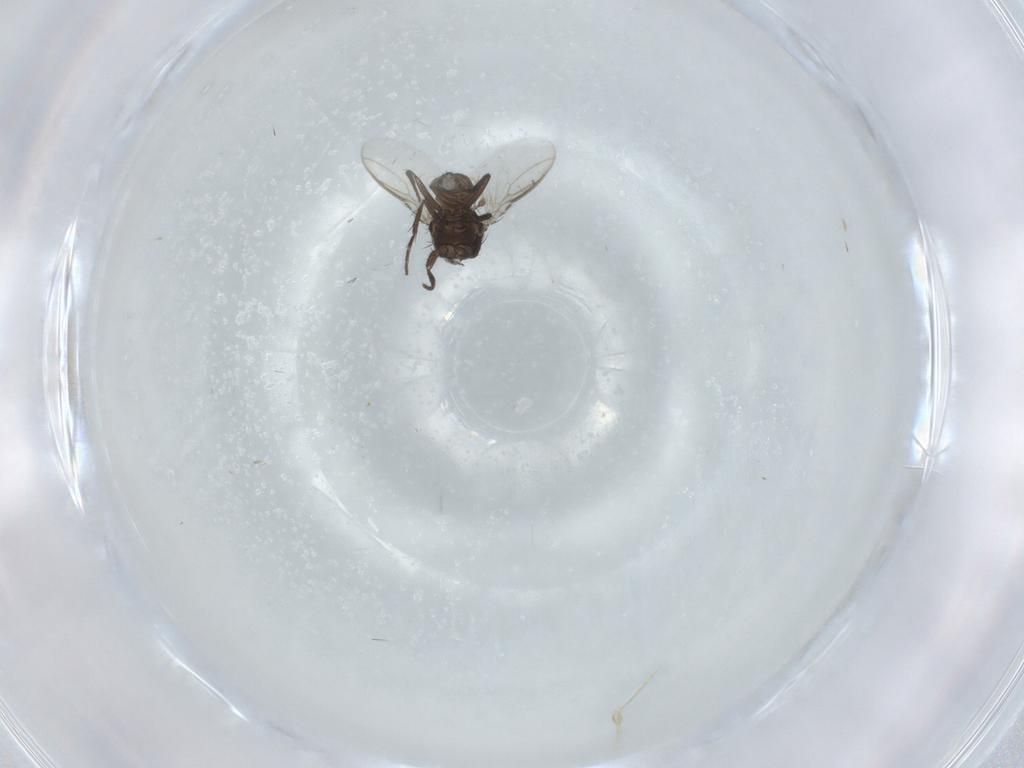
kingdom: Animalia
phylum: Arthropoda
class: Insecta
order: Diptera
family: Sphaeroceridae
